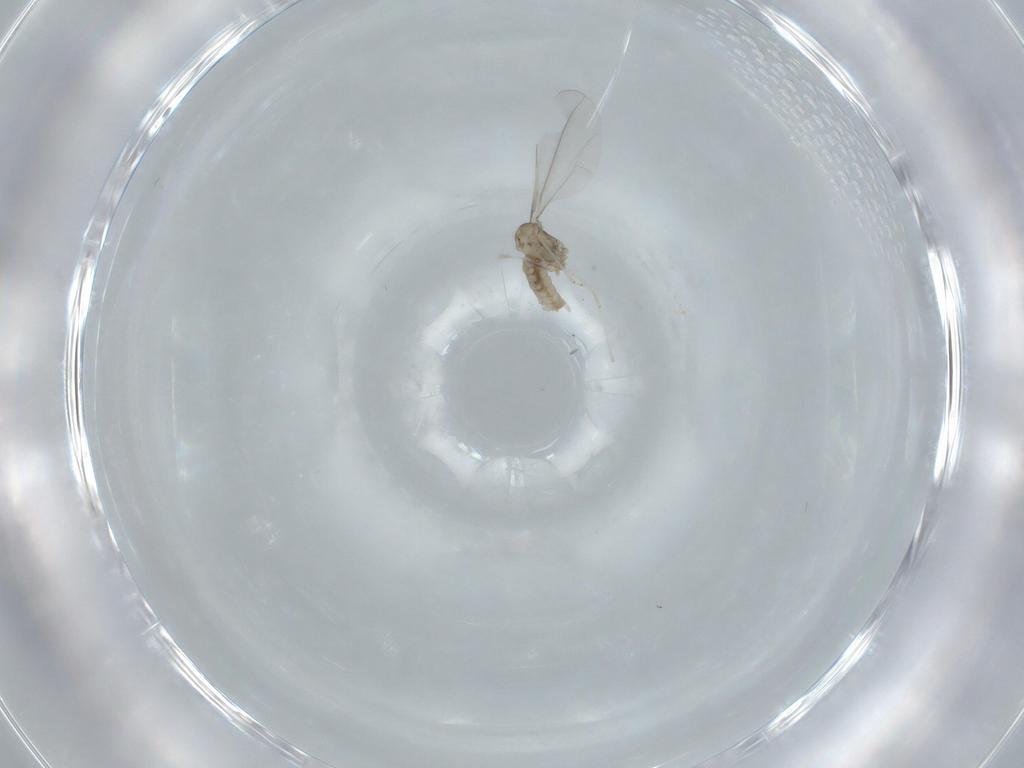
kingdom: Animalia
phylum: Arthropoda
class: Insecta
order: Diptera
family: Cecidomyiidae
